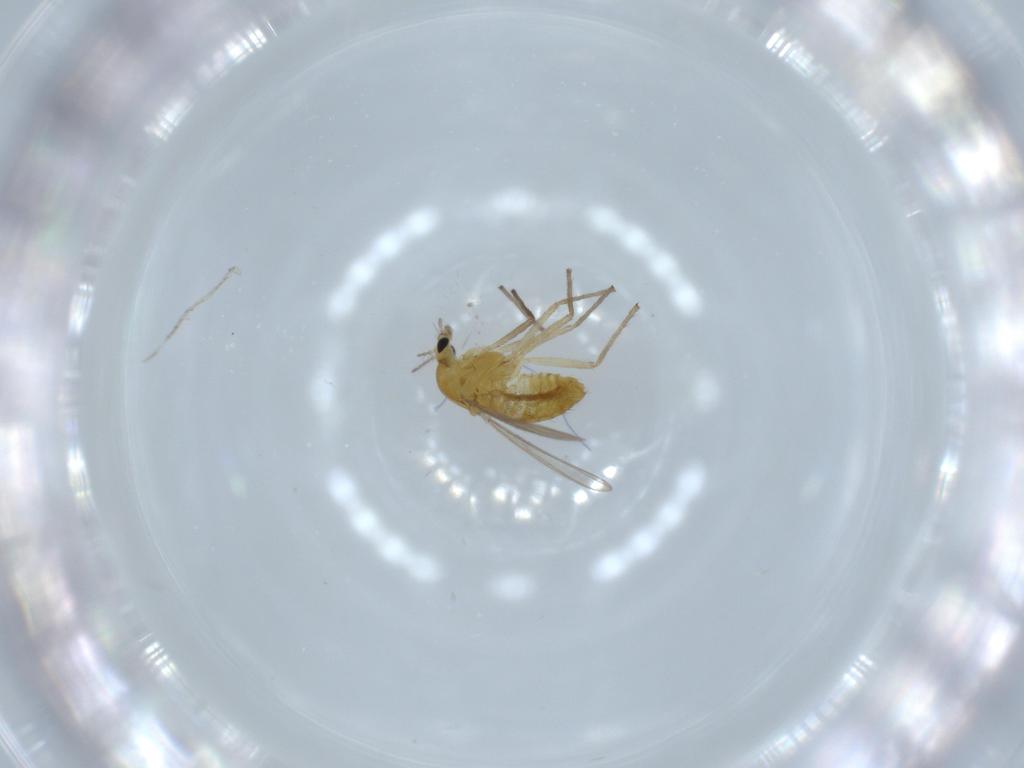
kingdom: Animalia
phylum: Arthropoda
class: Insecta
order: Diptera
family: Chironomidae
